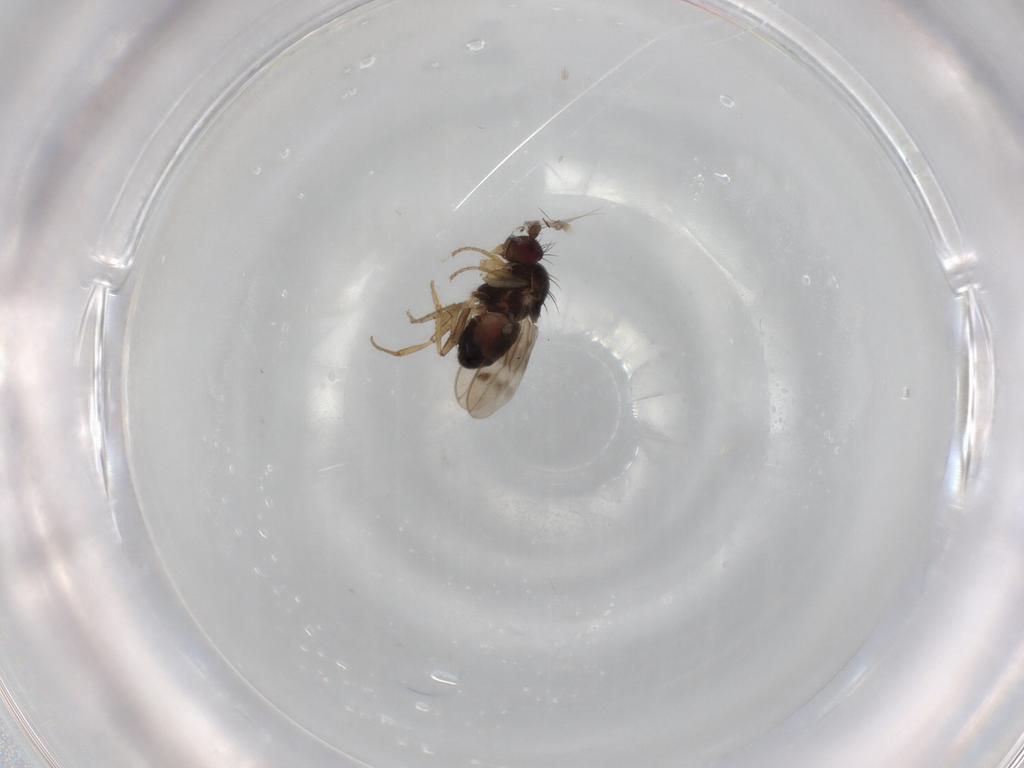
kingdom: Animalia
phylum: Arthropoda
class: Insecta
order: Diptera
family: Sphaeroceridae
